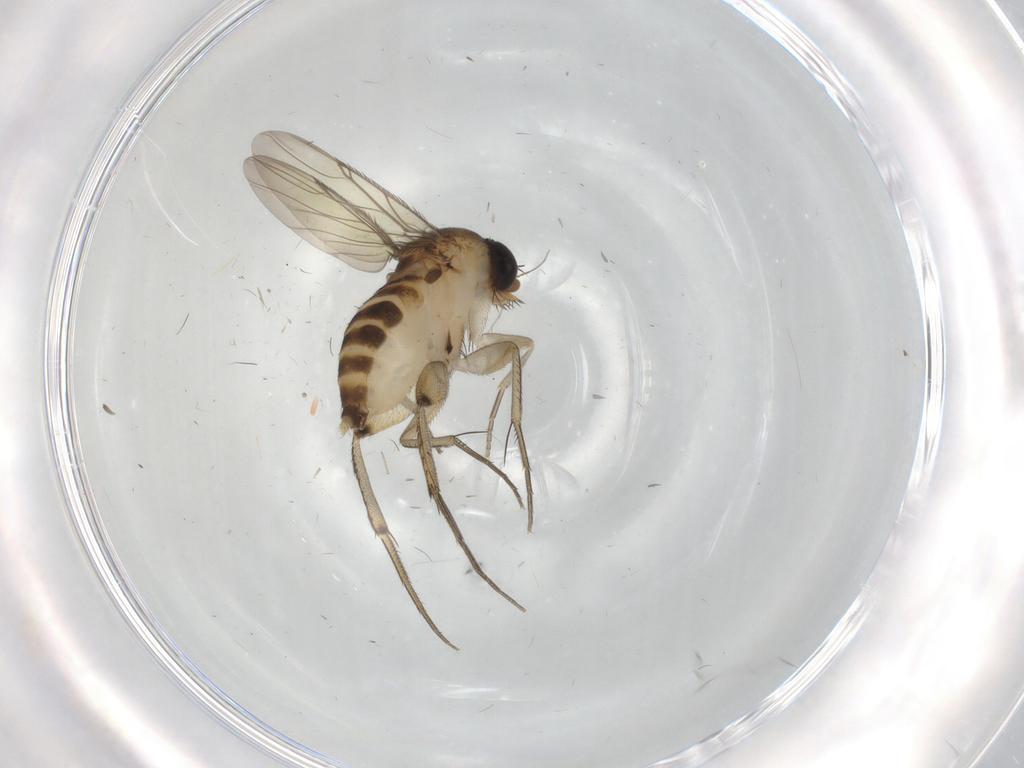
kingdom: Animalia
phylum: Arthropoda
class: Insecta
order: Diptera
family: Phoridae
